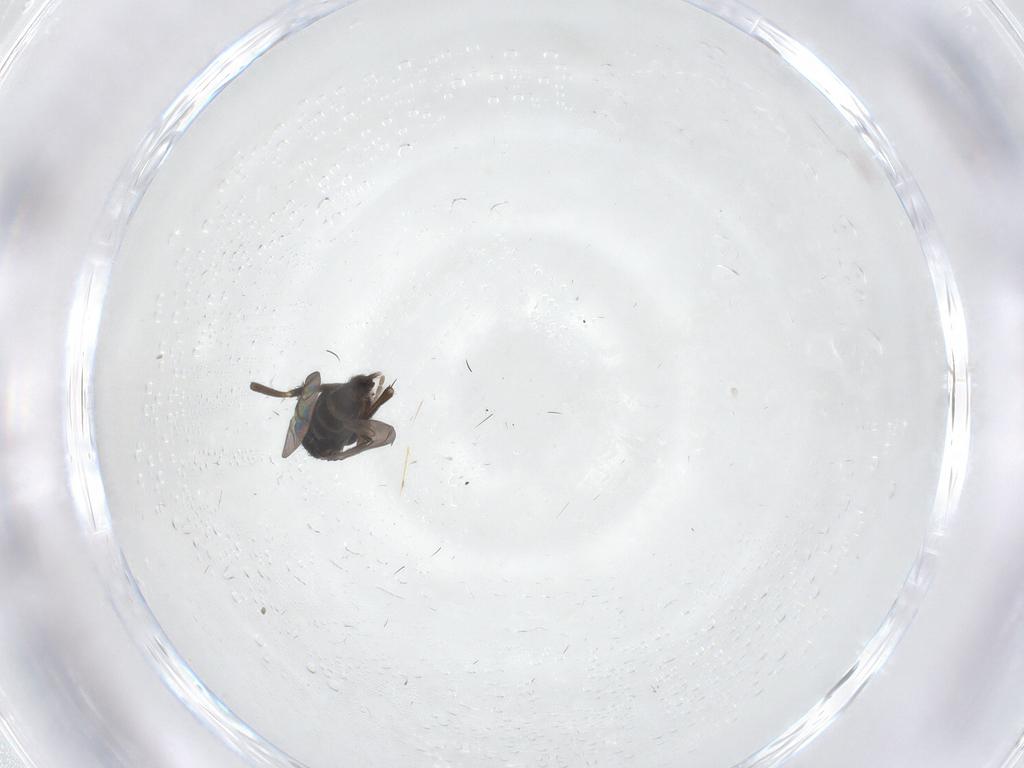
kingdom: Animalia
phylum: Arthropoda
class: Insecta
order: Diptera
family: Phoridae
